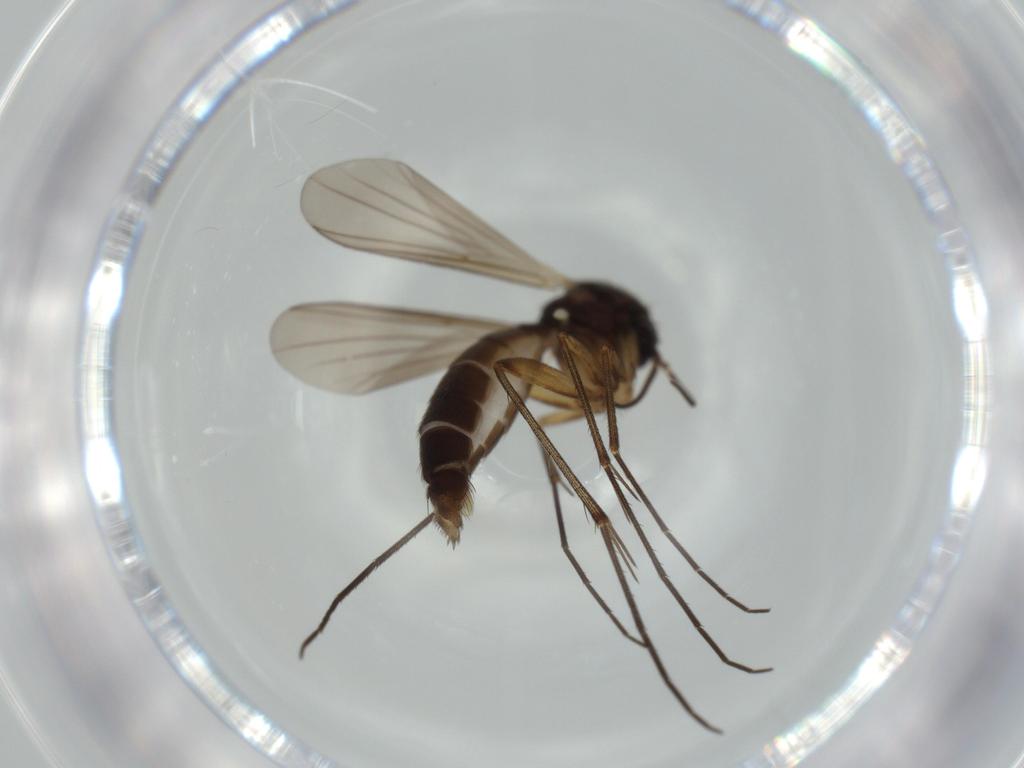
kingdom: Animalia
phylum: Arthropoda
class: Insecta
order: Diptera
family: Mycetophilidae
